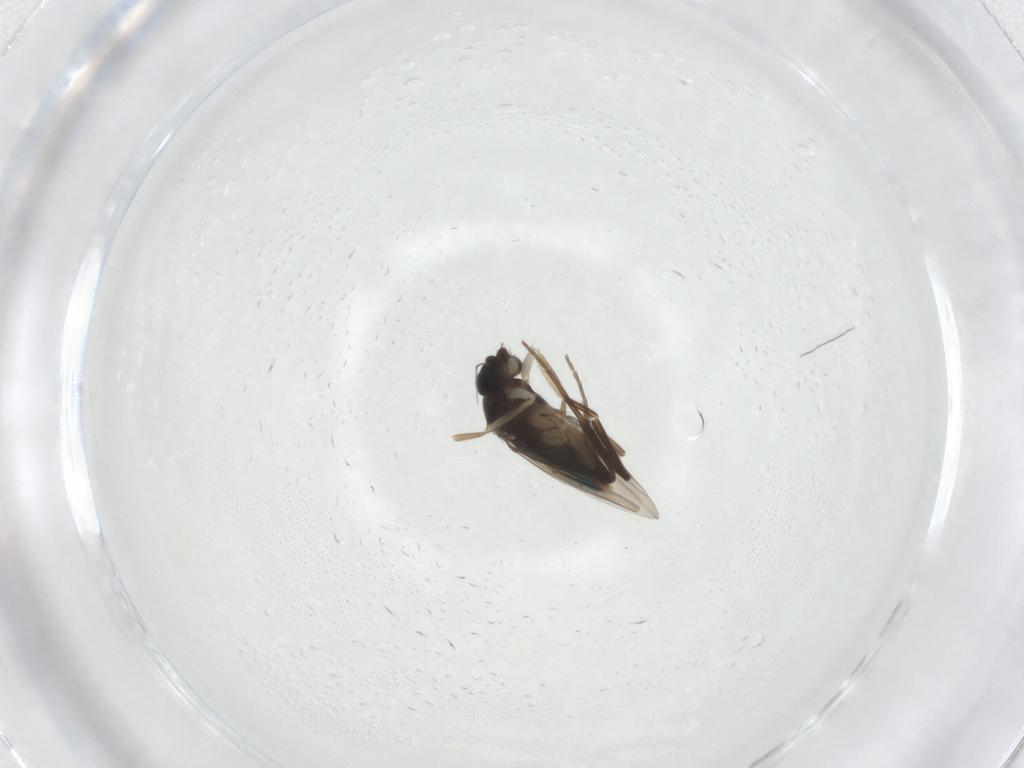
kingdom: Animalia
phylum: Arthropoda
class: Insecta
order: Diptera
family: Phoridae
